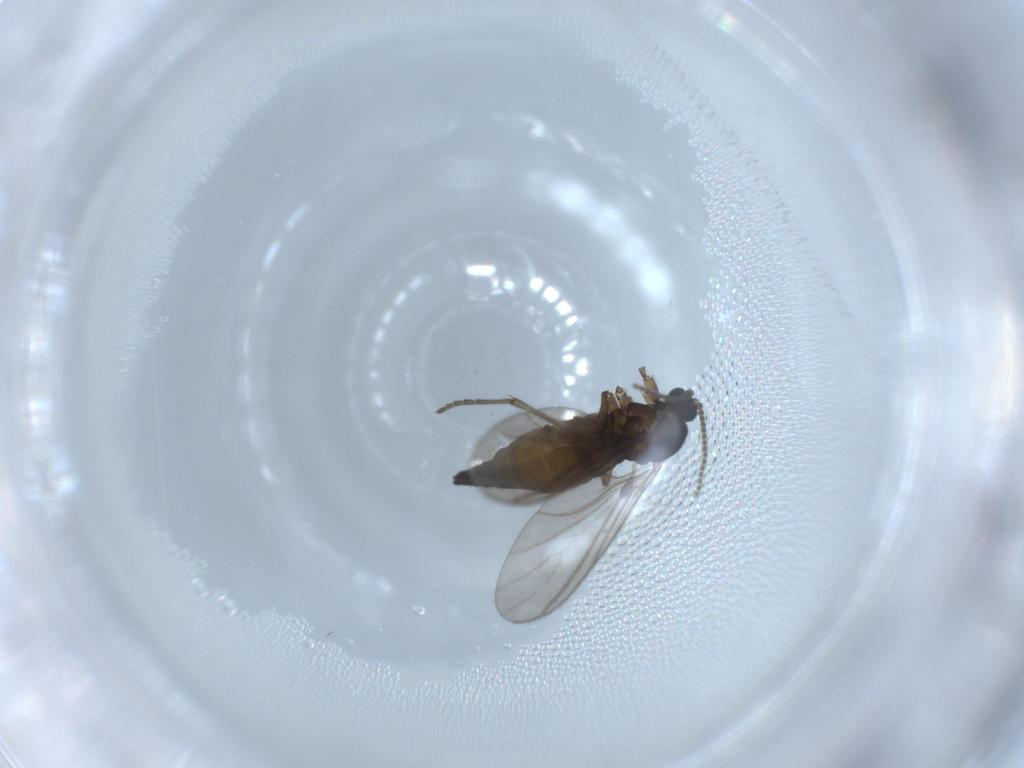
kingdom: Animalia
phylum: Arthropoda
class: Insecta
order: Diptera
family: Sciaridae
